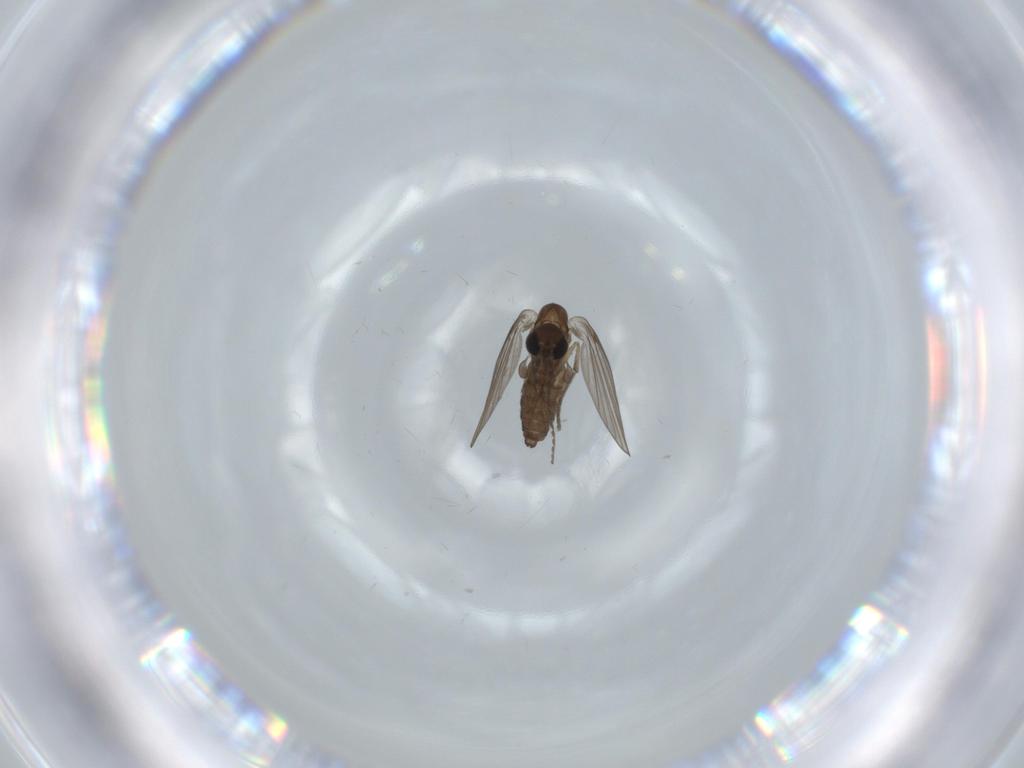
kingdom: Animalia
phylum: Arthropoda
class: Insecta
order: Diptera
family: Psychodidae
